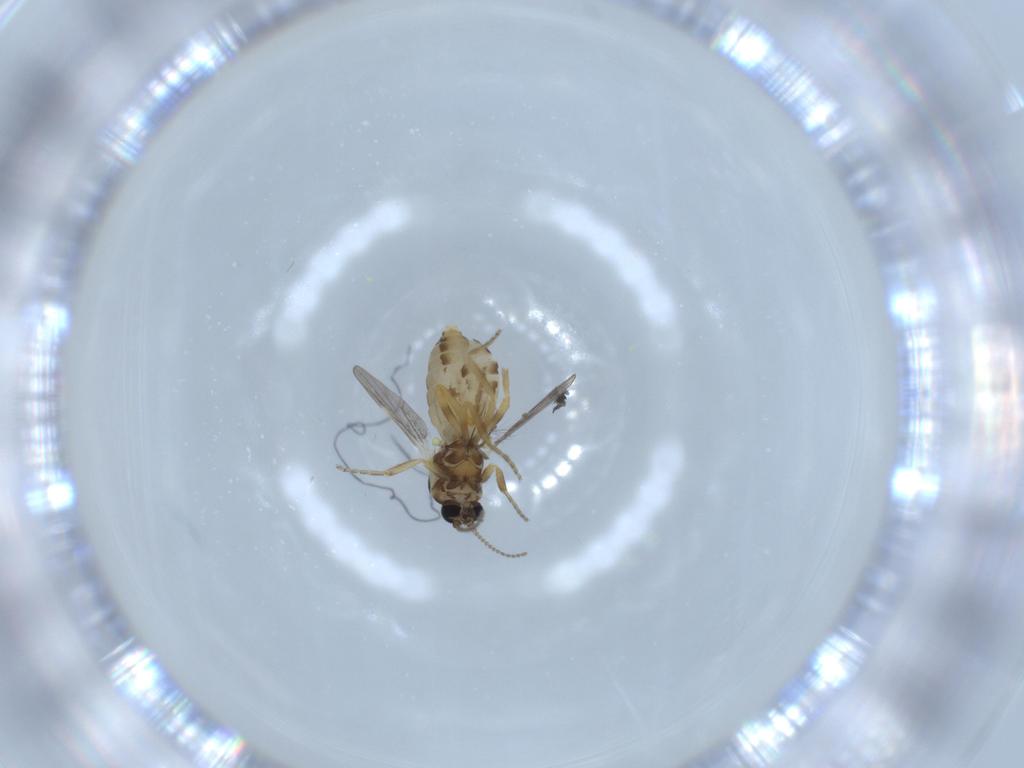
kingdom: Animalia
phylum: Arthropoda
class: Insecta
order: Diptera
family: Ceratopogonidae
